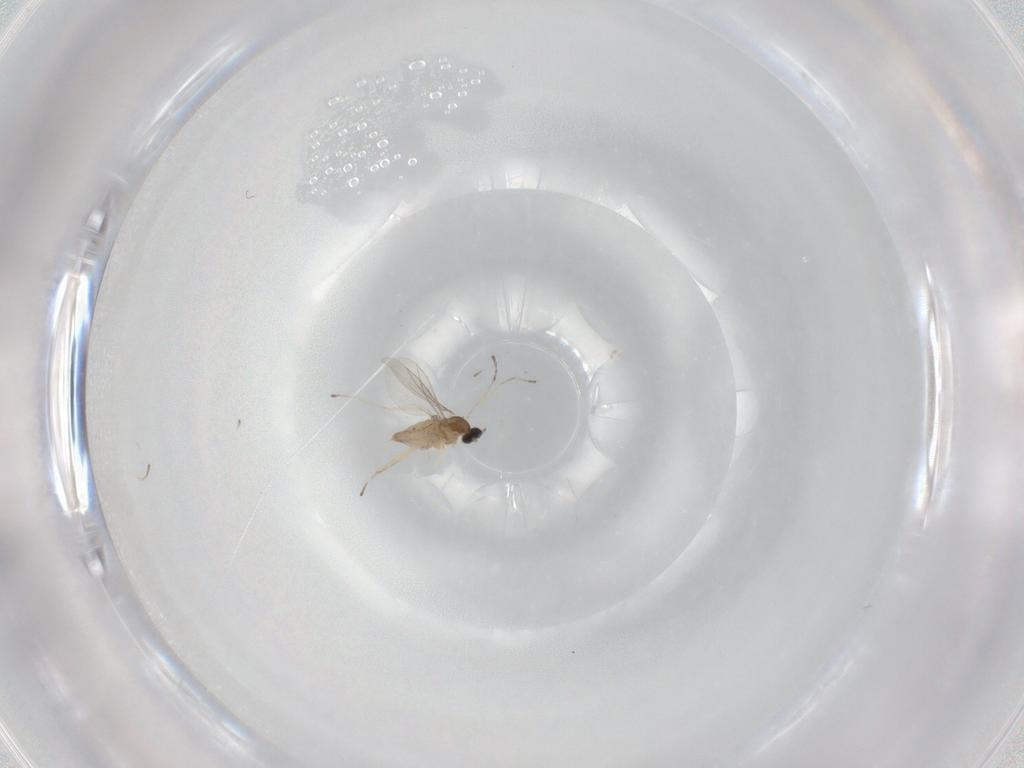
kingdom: Animalia
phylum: Arthropoda
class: Insecta
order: Diptera
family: Cecidomyiidae
